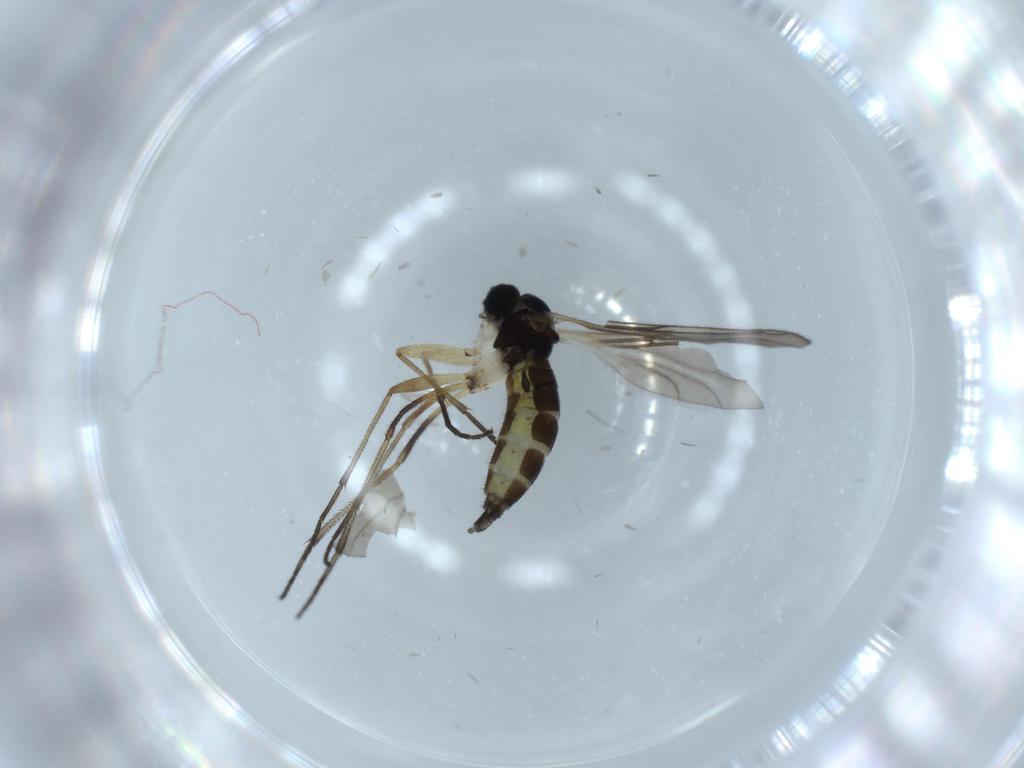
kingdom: Animalia
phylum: Arthropoda
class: Insecta
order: Diptera
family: Sciaridae
